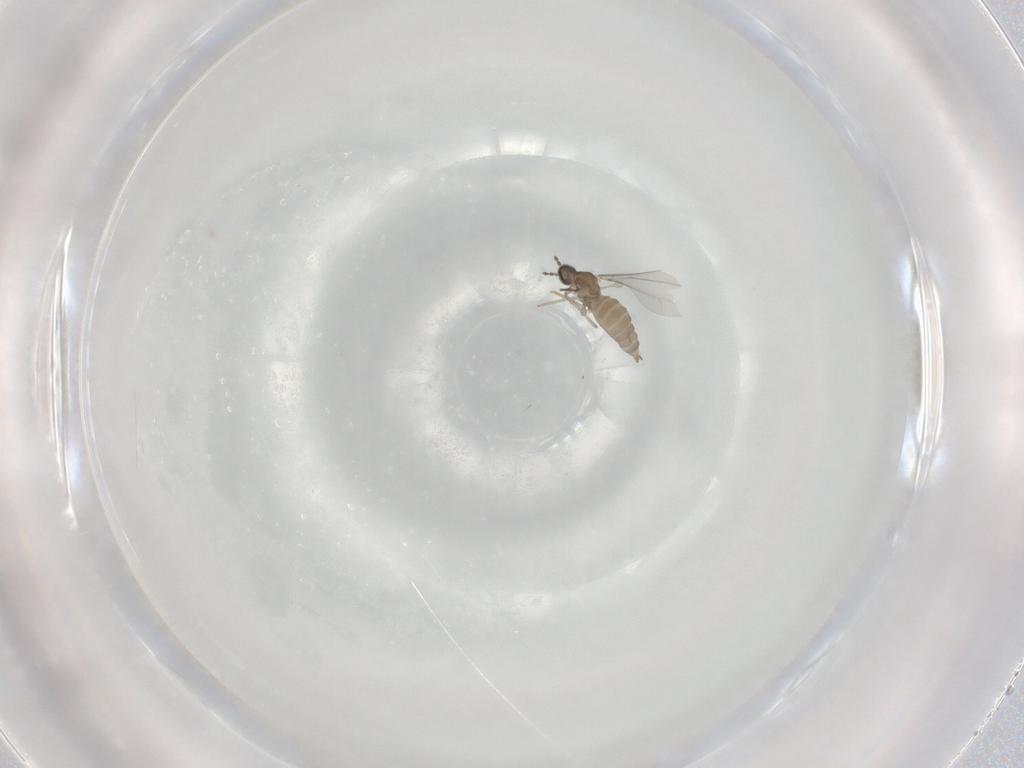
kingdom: Animalia
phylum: Arthropoda
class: Insecta
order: Diptera
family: Cecidomyiidae
